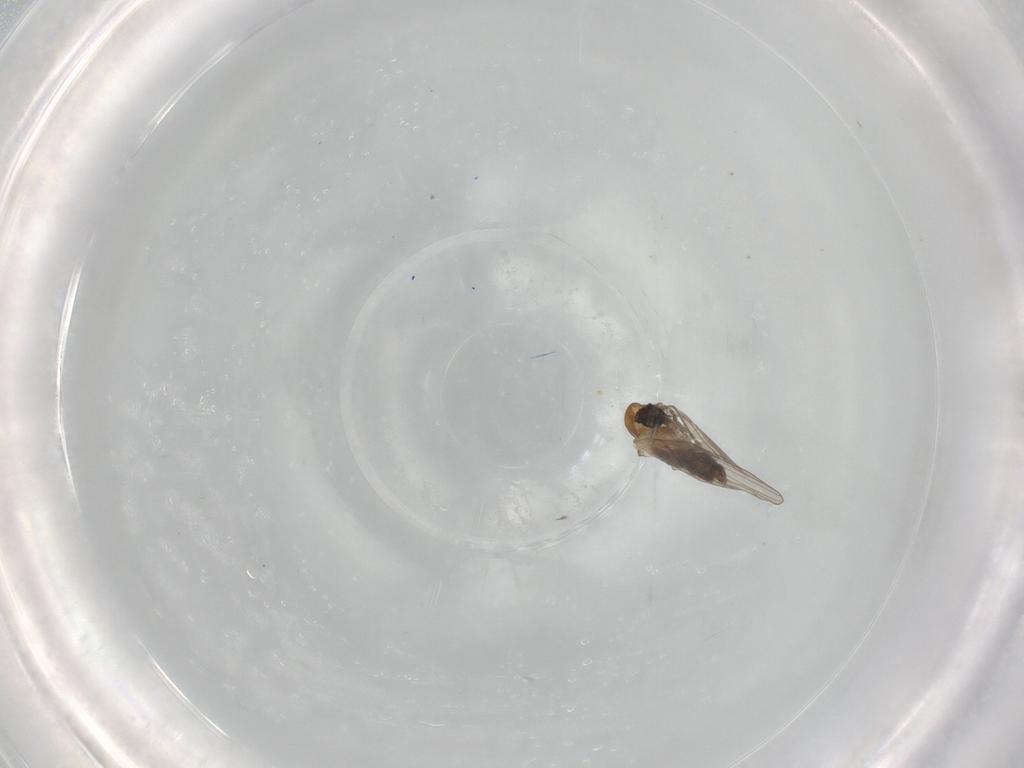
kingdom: Animalia
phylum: Arthropoda
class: Insecta
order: Diptera
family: Psychodidae
